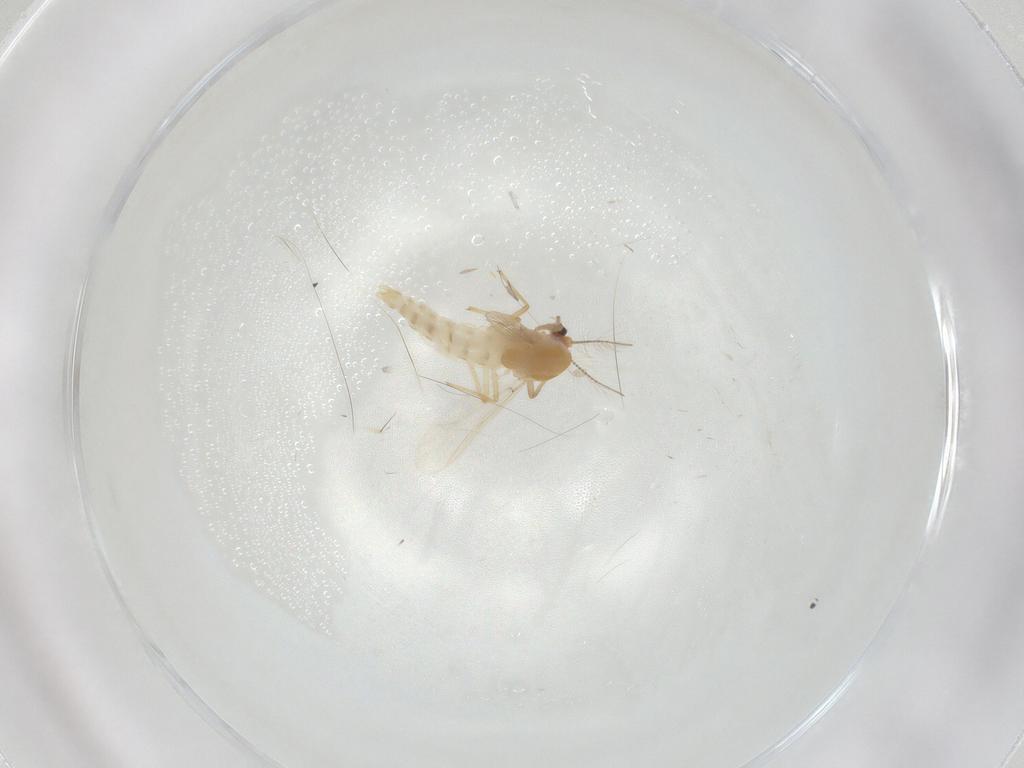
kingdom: Animalia
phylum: Arthropoda
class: Insecta
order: Diptera
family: Chironomidae
